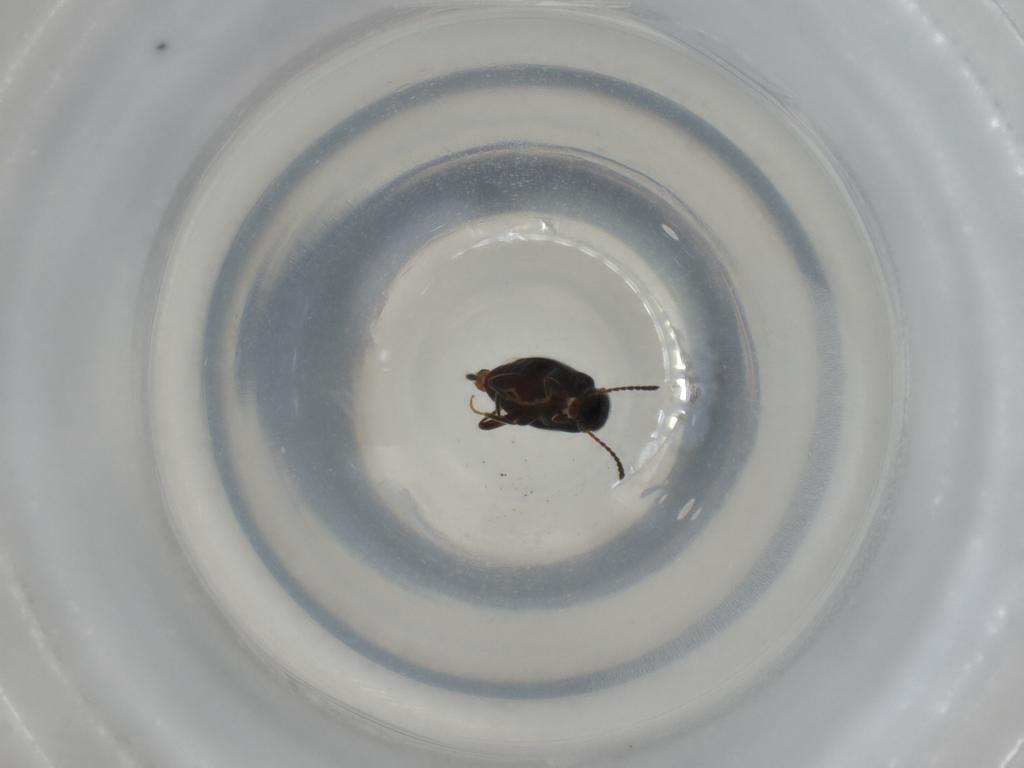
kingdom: Animalia
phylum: Arthropoda
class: Insecta
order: Coleoptera
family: Anthicidae
